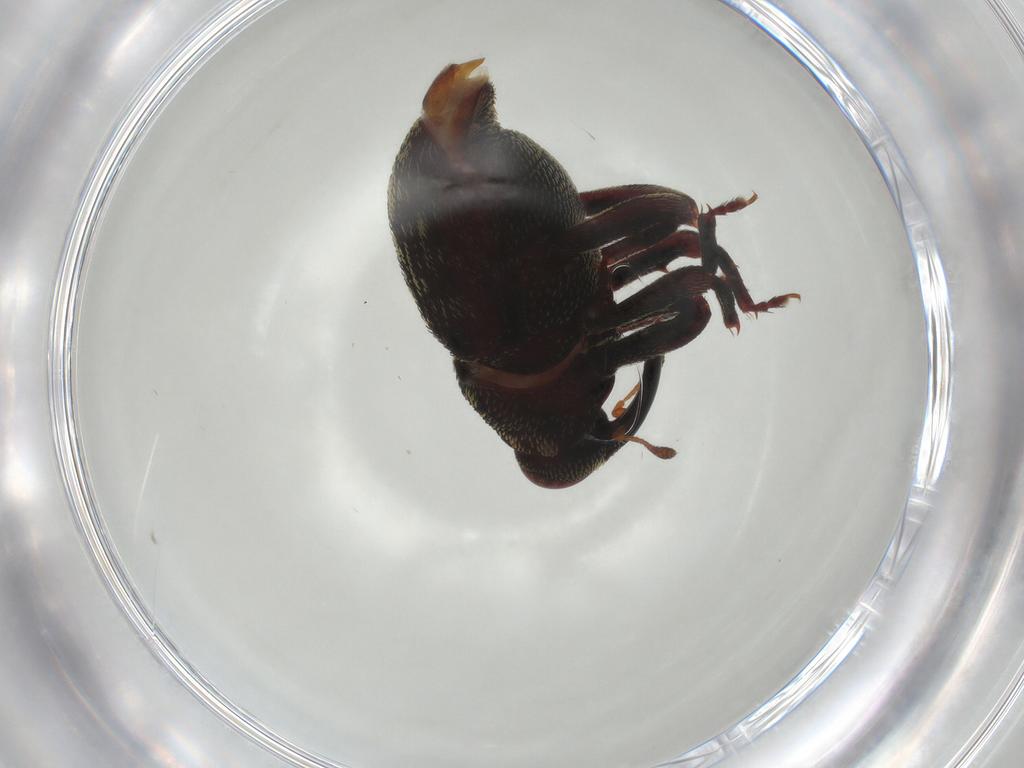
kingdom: Animalia
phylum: Arthropoda
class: Insecta
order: Coleoptera
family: Curculionidae
